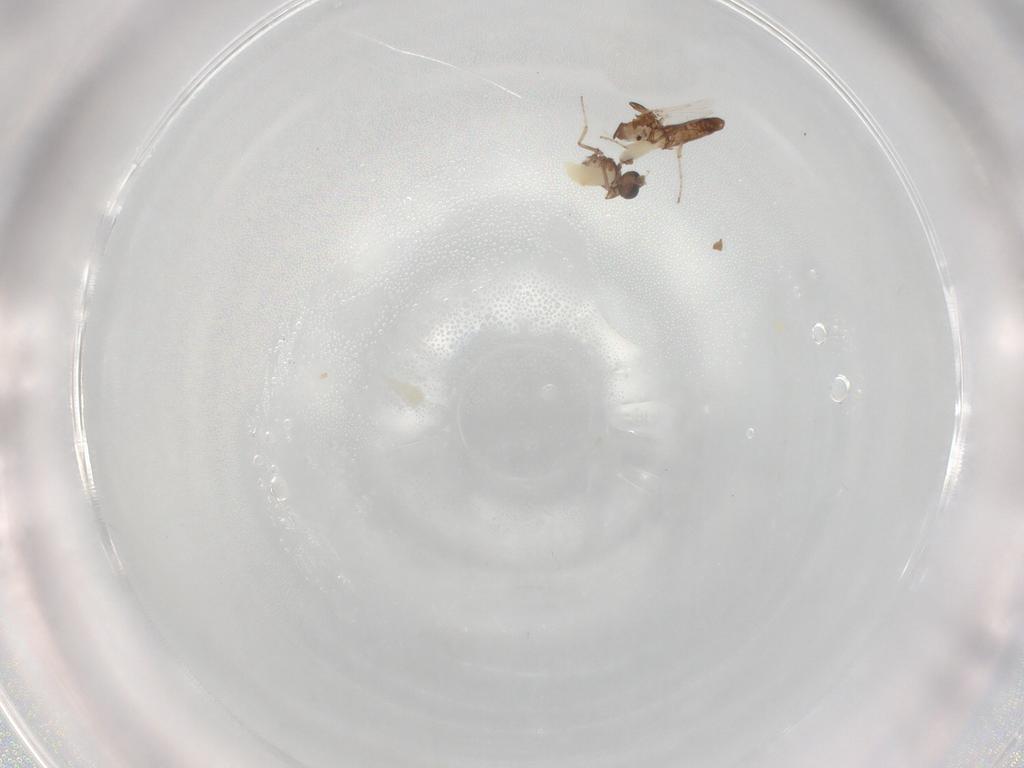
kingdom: Animalia
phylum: Arthropoda
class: Insecta
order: Diptera
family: Ceratopogonidae
